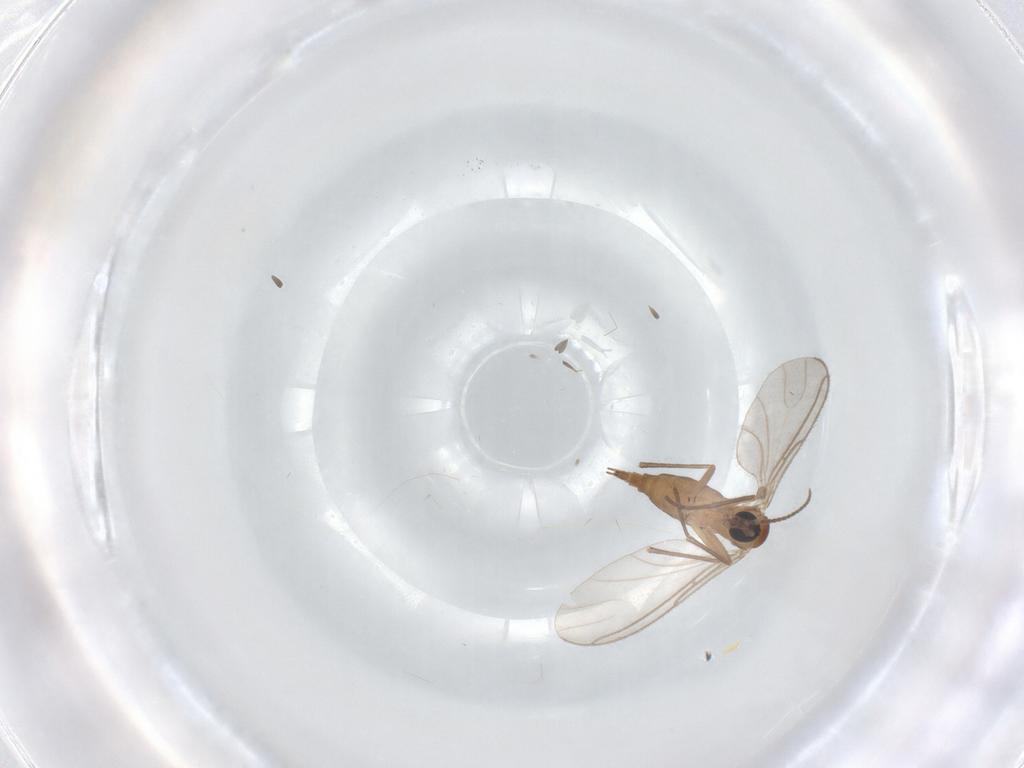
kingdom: Animalia
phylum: Arthropoda
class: Insecta
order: Diptera
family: Sciaridae
